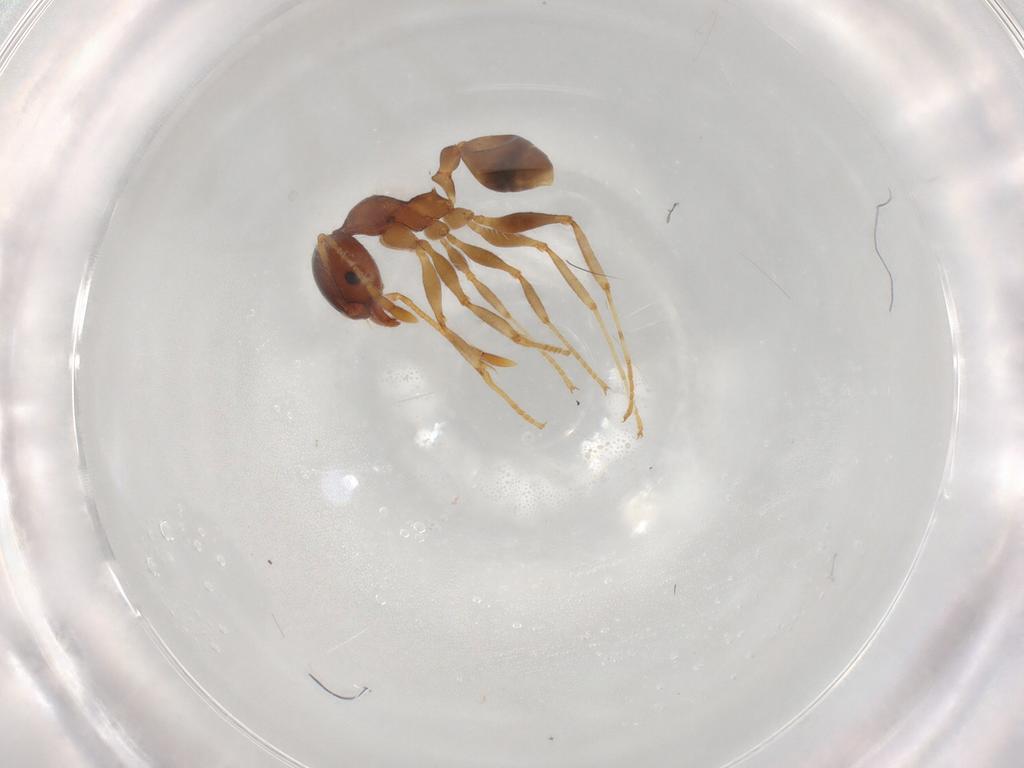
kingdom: Animalia
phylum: Arthropoda
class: Insecta
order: Hymenoptera
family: Formicidae
